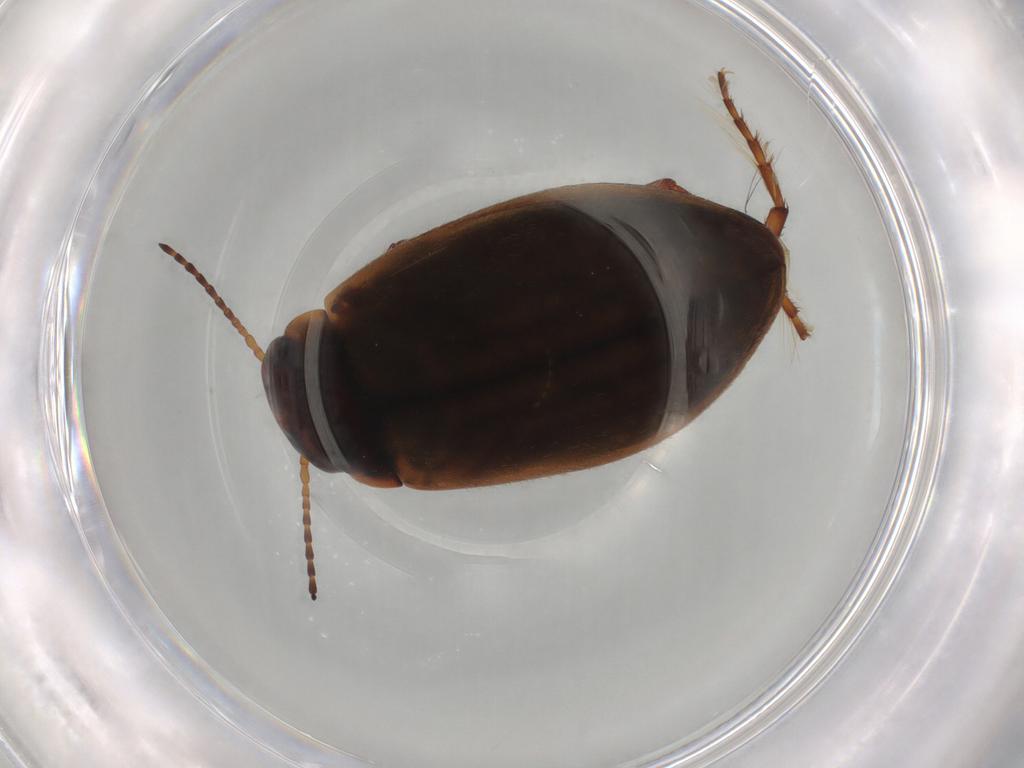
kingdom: Animalia
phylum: Arthropoda
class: Insecta
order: Coleoptera
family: Dytiscidae
